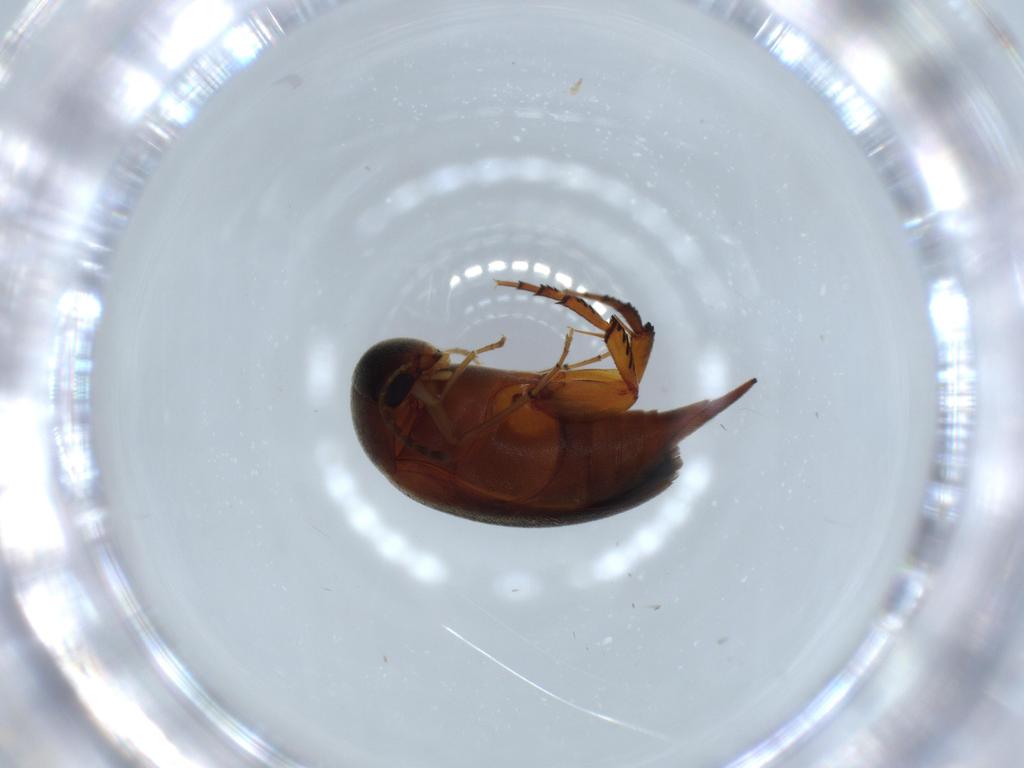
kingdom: Animalia
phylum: Arthropoda
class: Insecta
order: Coleoptera
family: Mordellidae
